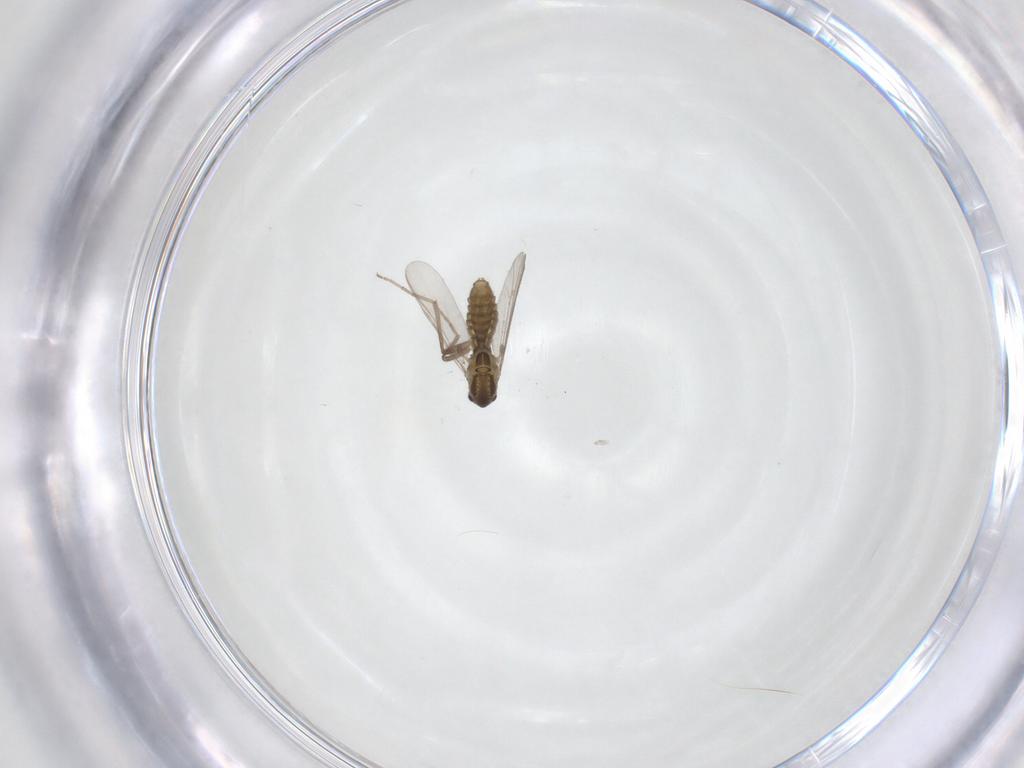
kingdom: Animalia
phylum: Arthropoda
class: Insecta
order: Diptera
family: Chironomidae
